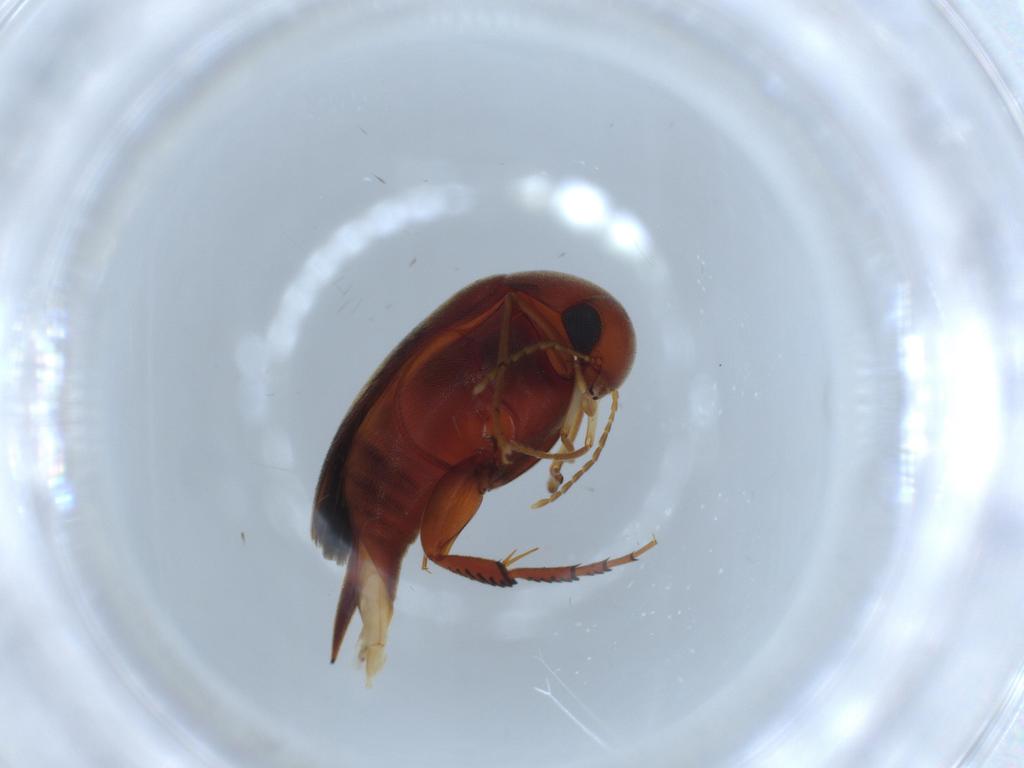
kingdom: Animalia
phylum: Arthropoda
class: Insecta
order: Coleoptera
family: Mordellidae
